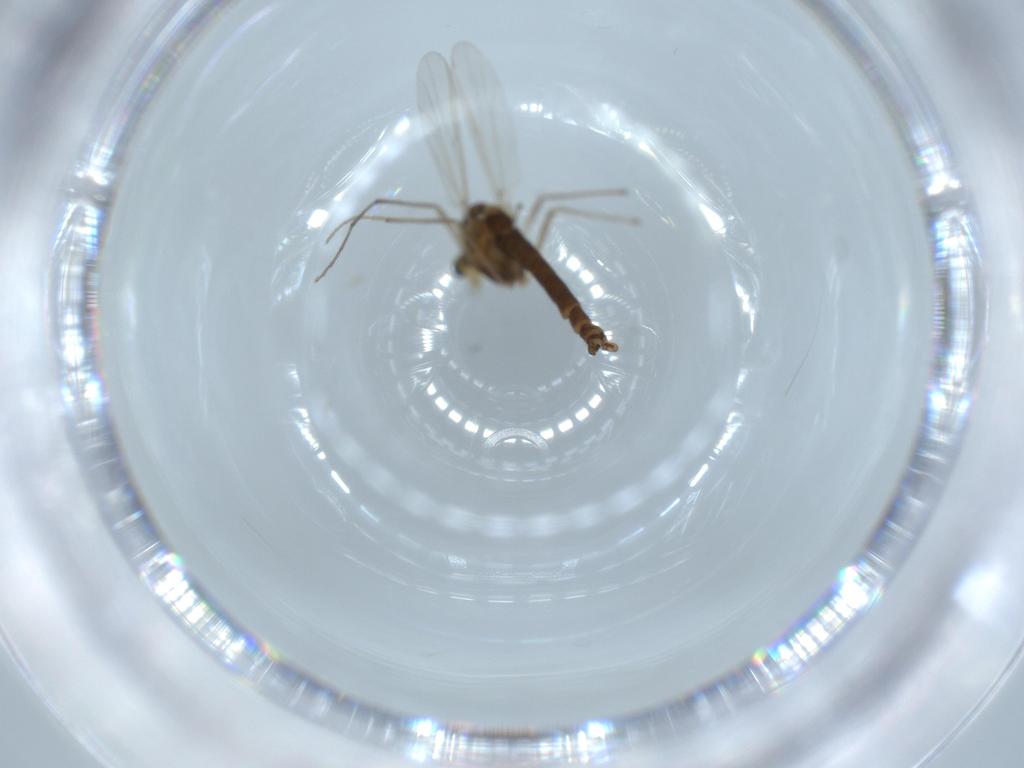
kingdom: Animalia
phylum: Arthropoda
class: Insecta
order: Diptera
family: Chironomidae
